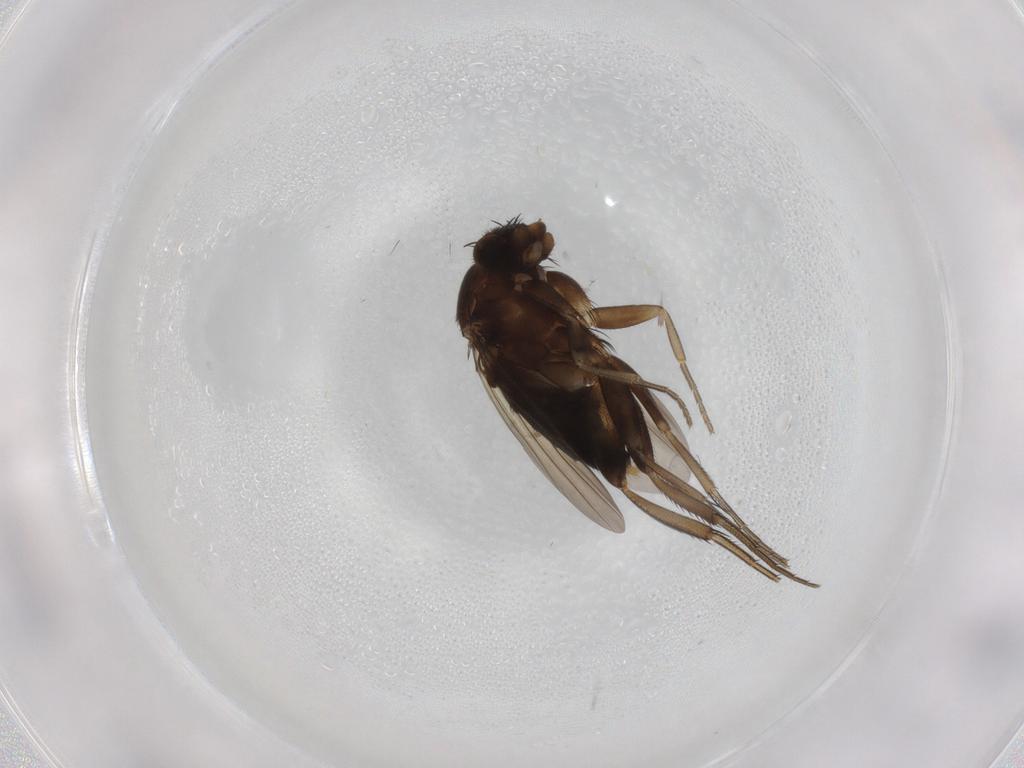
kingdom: Animalia
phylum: Arthropoda
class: Insecta
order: Diptera
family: Phoridae
